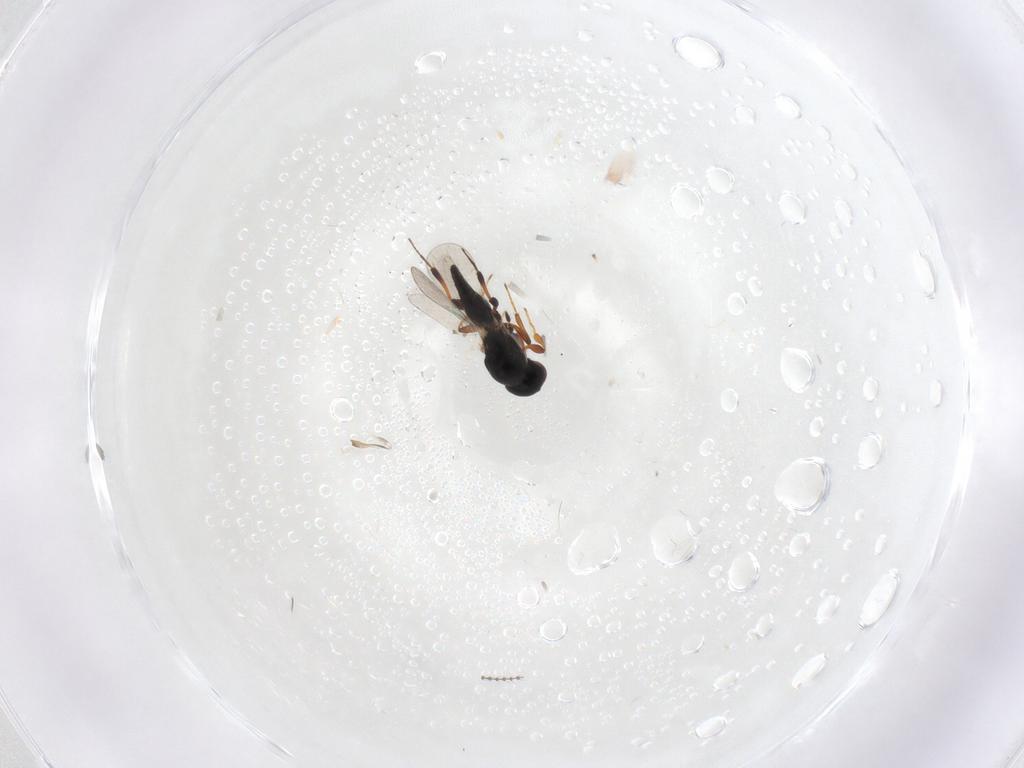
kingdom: Animalia
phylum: Arthropoda
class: Insecta
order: Hymenoptera
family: Platygastridae
